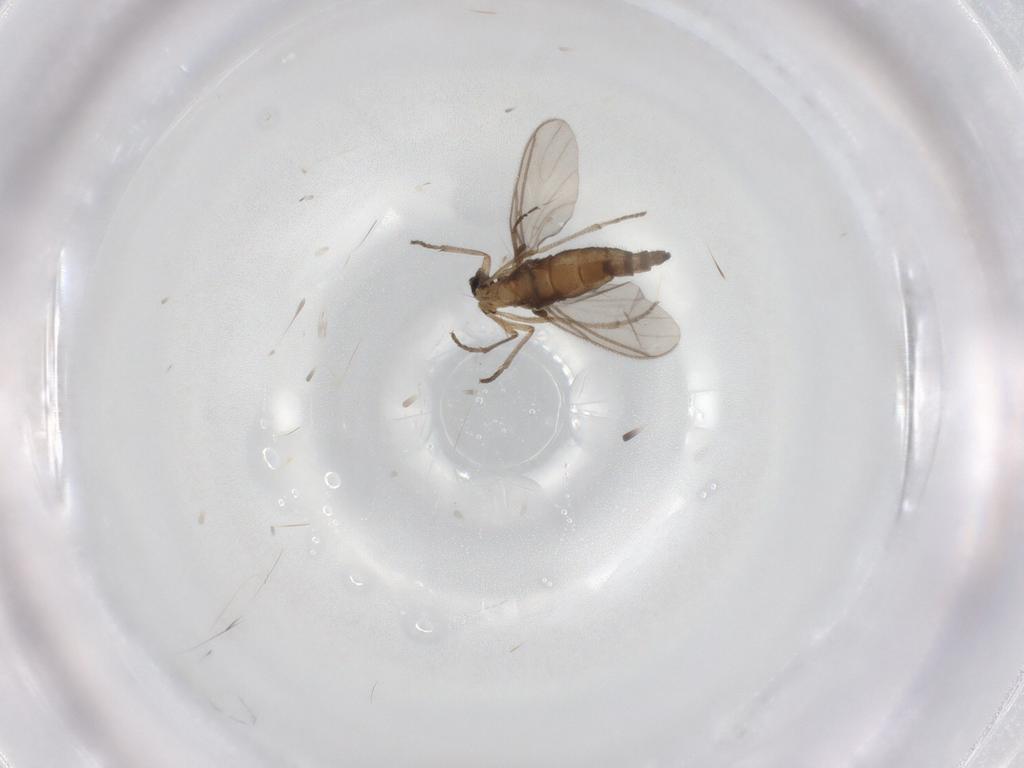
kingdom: Animalia
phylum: Arthropoda
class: Insecta
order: Diptera
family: Sciaridae
